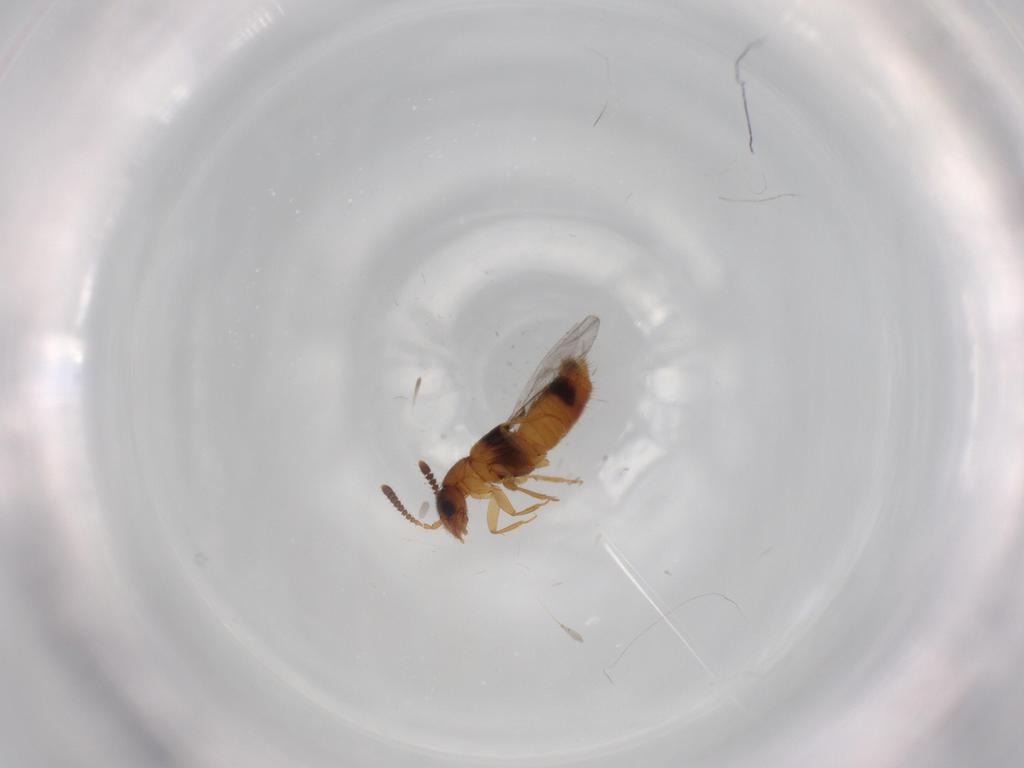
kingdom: Animalia
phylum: Arthropoda
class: Insecta
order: Coleoptera
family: Staphylinidae
